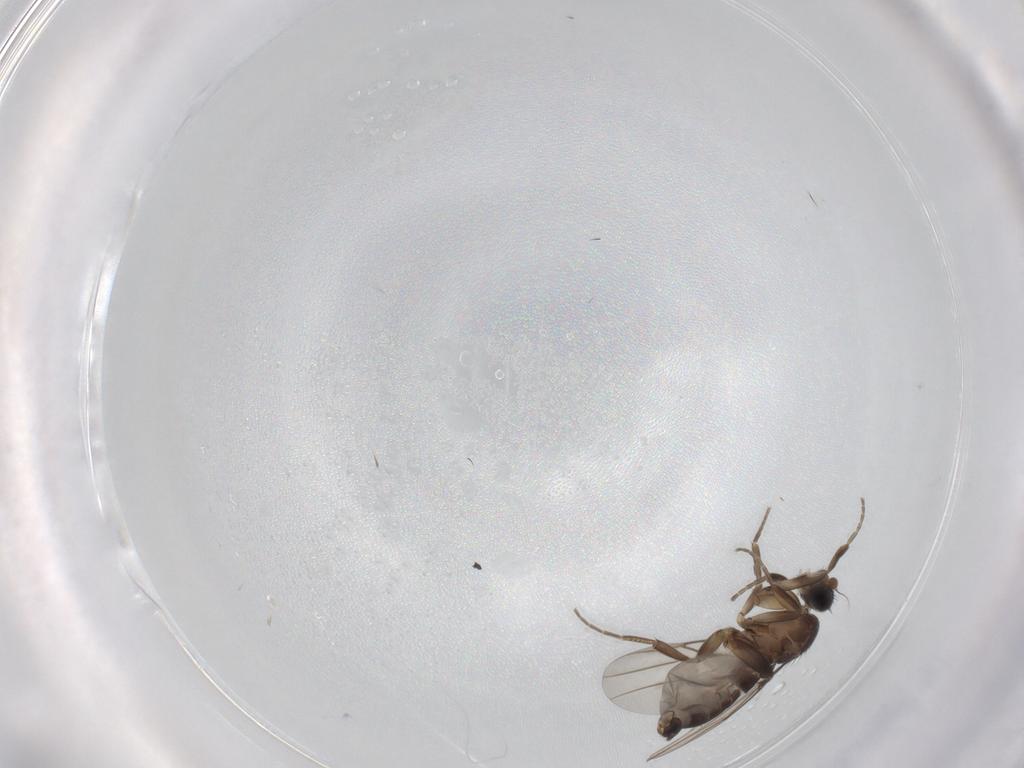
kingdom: Animalia
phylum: Arthropoda
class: Insecta
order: Diptera
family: Phoridae
